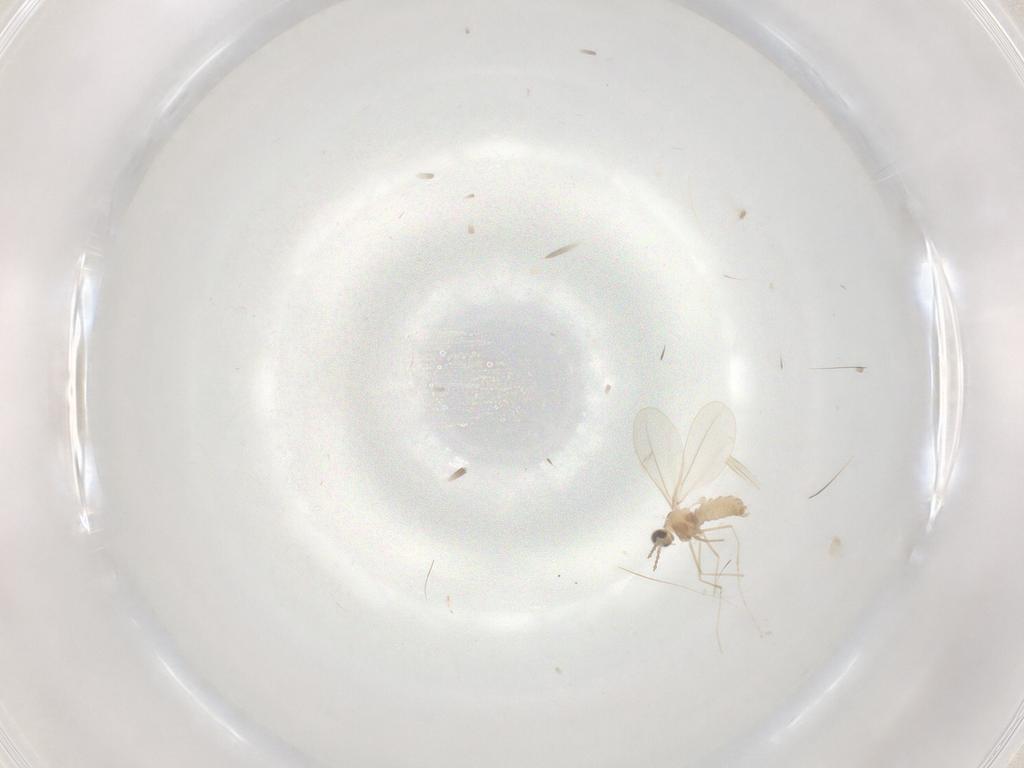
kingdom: Animalia
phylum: Arthropoda
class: Insecta
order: Diptera
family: Cecidomyiidae
